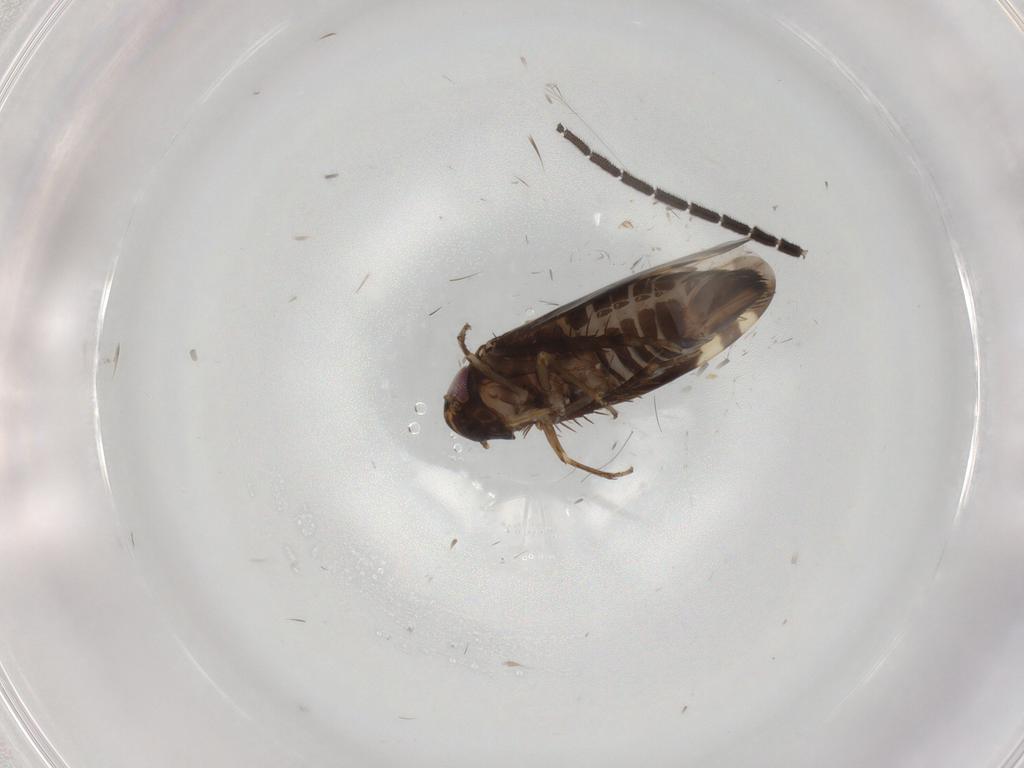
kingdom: Animalia
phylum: Arthropoda
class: Insecta
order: Hemiptera
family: Cicadellidae
